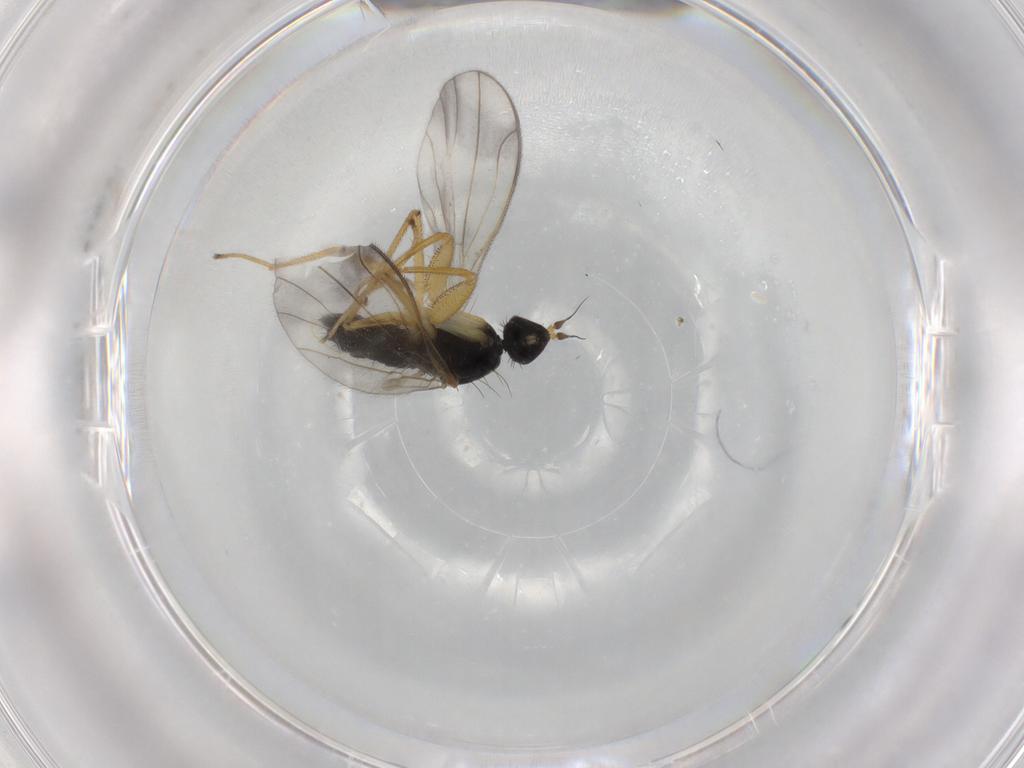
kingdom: Animalia
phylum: Arthropoda
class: Insecta
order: Diptera
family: Empididae
